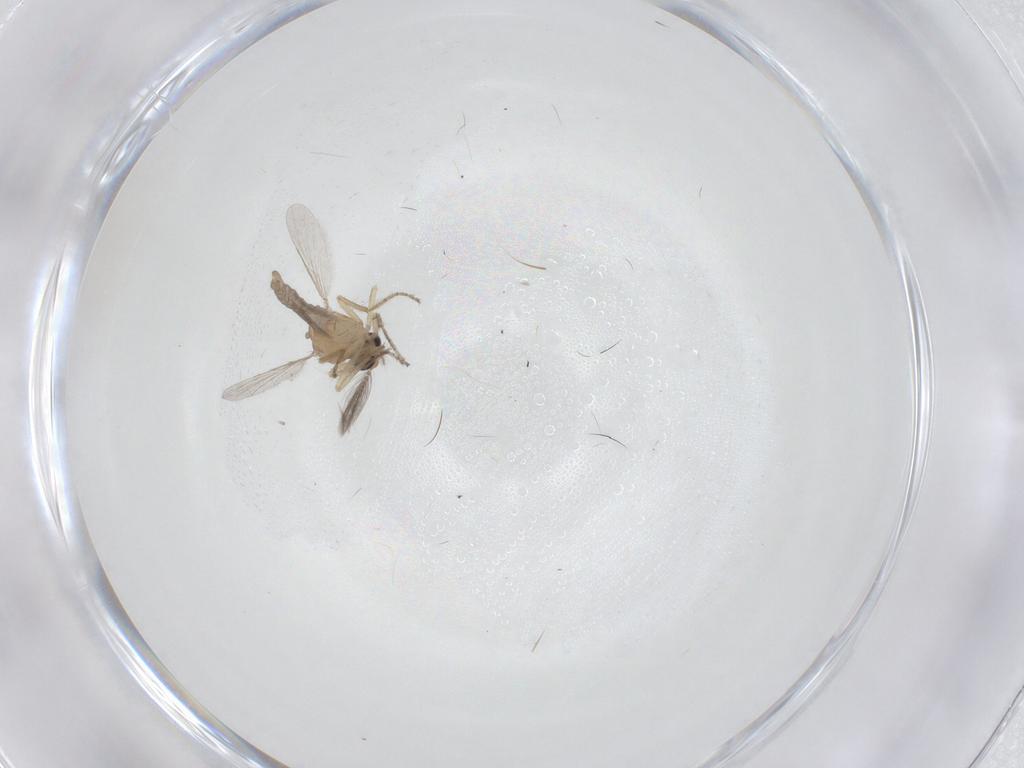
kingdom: Animalia
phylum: Arthropoda
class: Insecta
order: Diptera
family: Ceratopogonidae
